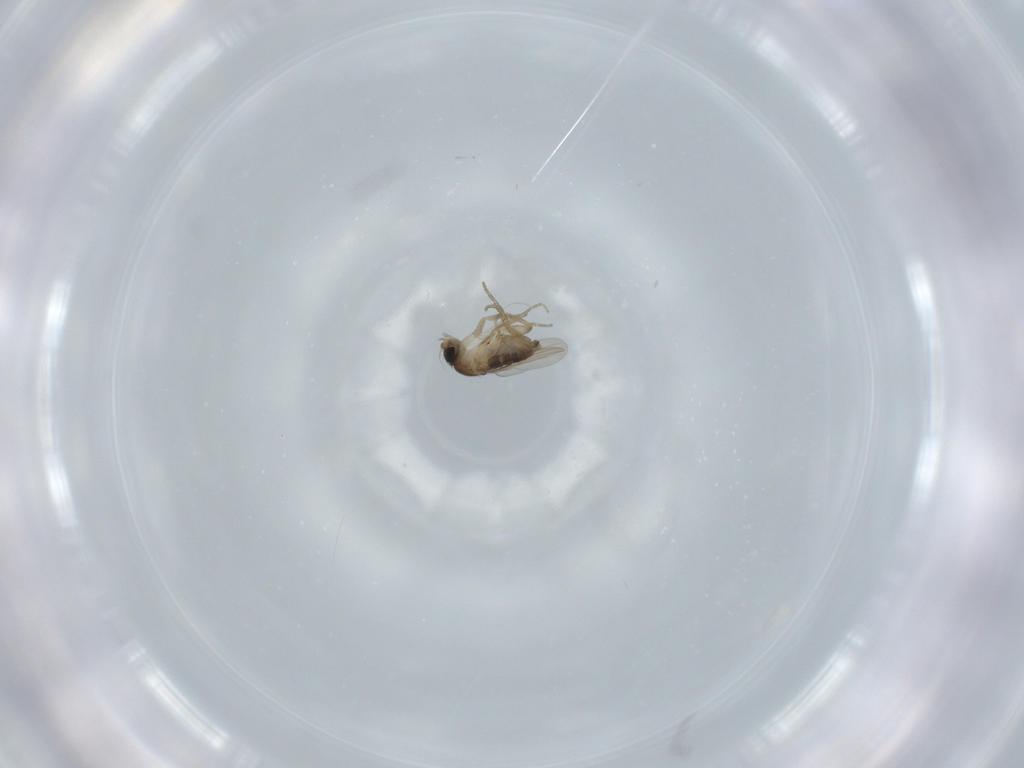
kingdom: Animalia
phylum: Arthropoda
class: Insecta
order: Diptera
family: Phoridae
